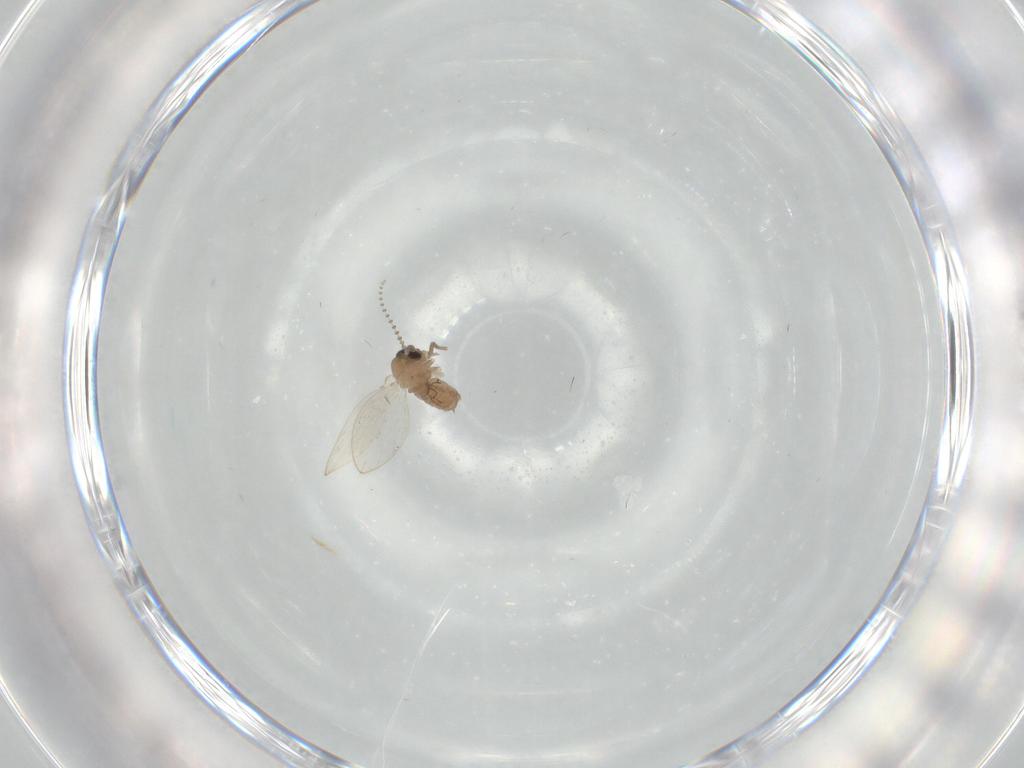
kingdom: Animalia
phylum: Arthropoda
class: Insecta
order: Diptera
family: Psychodidae
